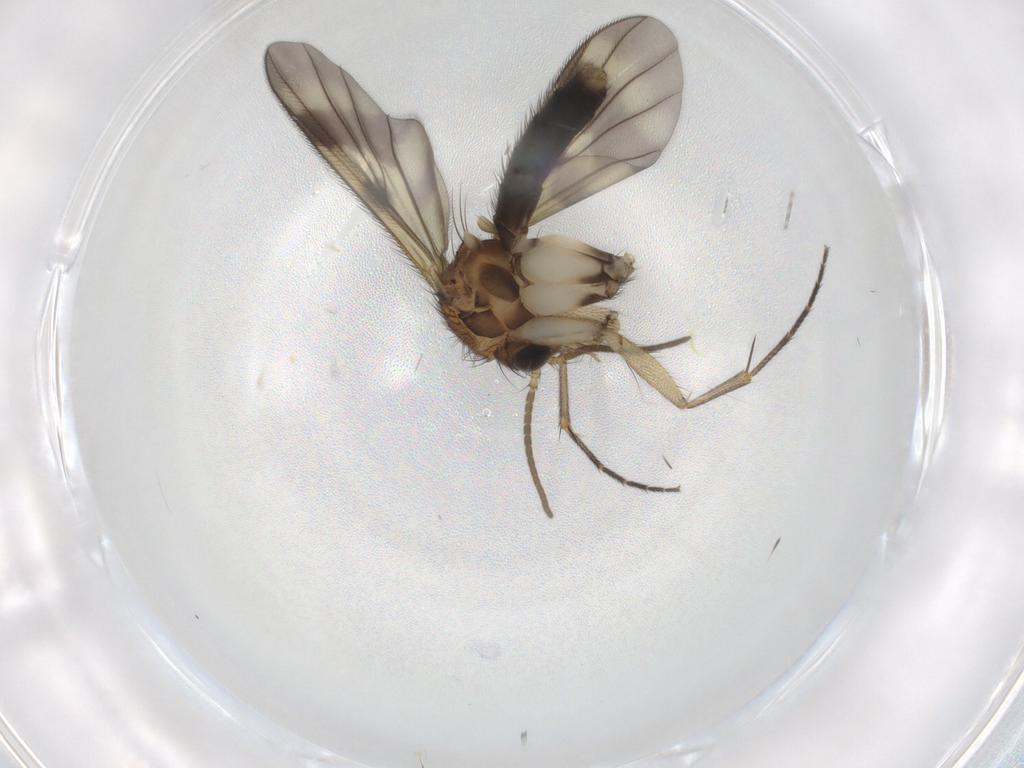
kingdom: Animalia
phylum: Arthropoda
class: Insecta
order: Diptera
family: Mycetophilidae
